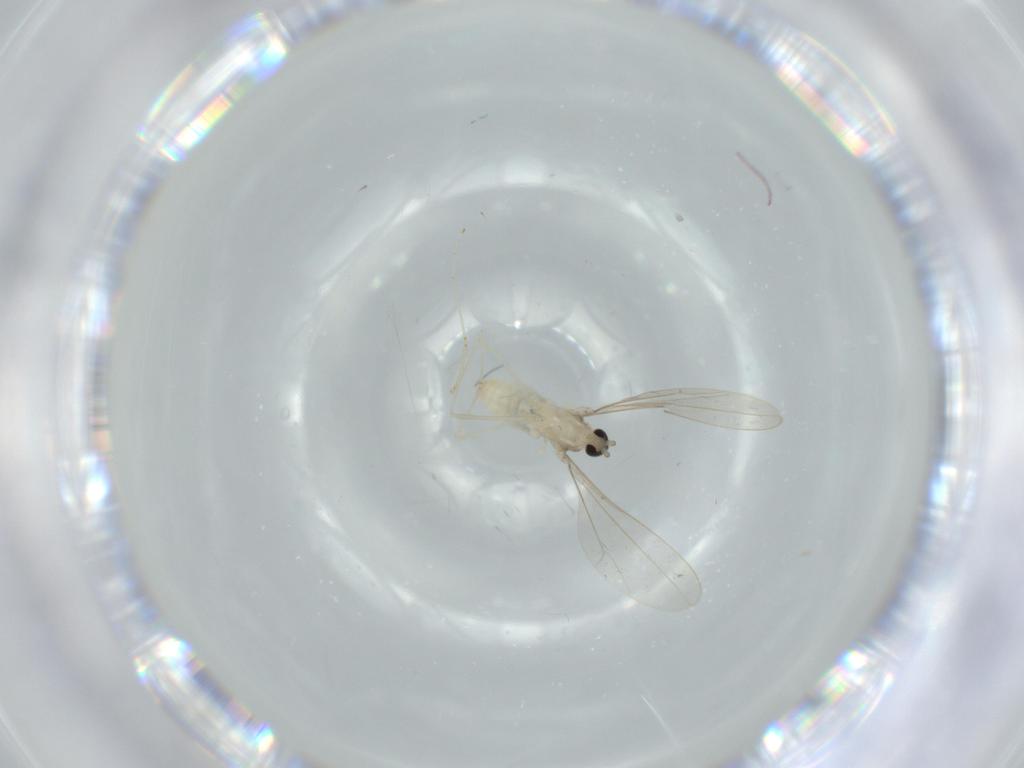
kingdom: Animalia
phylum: Arthropoda
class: Insecta
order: Diptera
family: Cecidomyiidae
